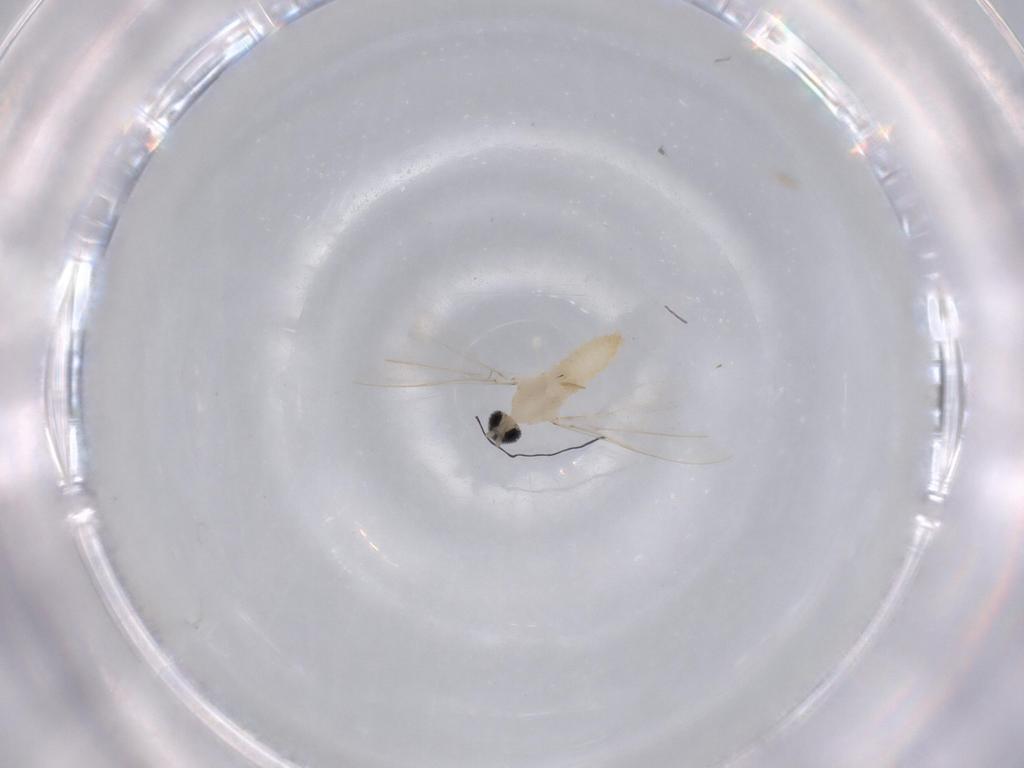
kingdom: Animalia
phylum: Arthropoda
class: Insecta
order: Diptera
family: Cecidomyiidae
